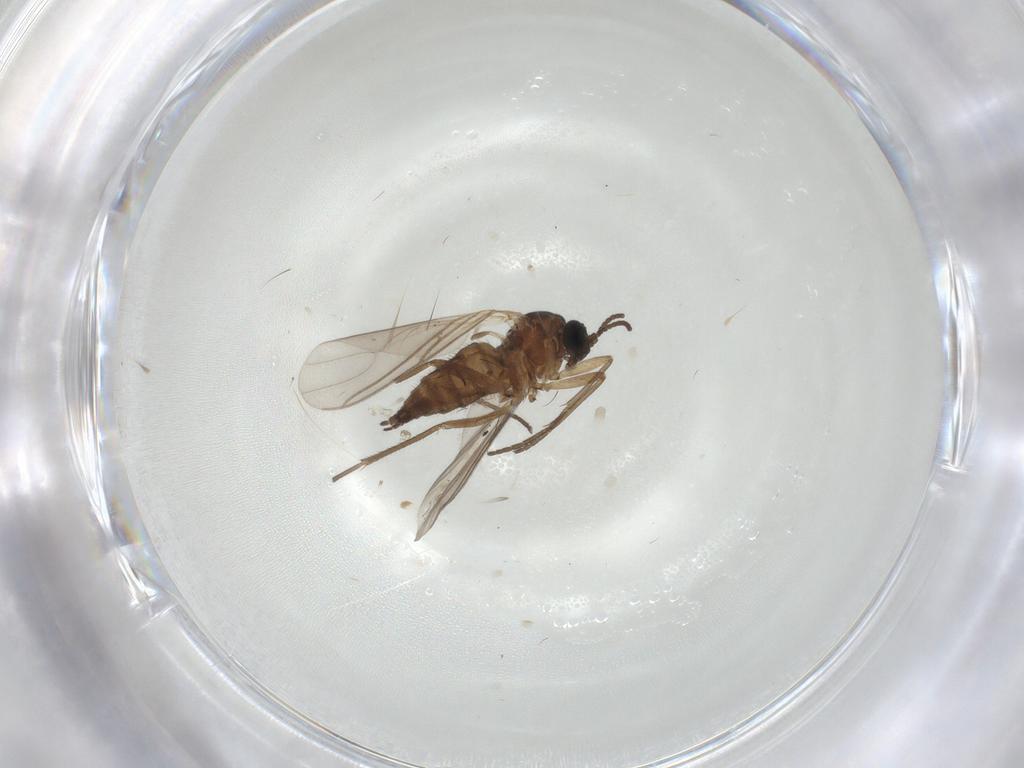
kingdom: Animalia
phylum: Arthropoda
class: Insecta
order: Diptera
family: Sciaridae
